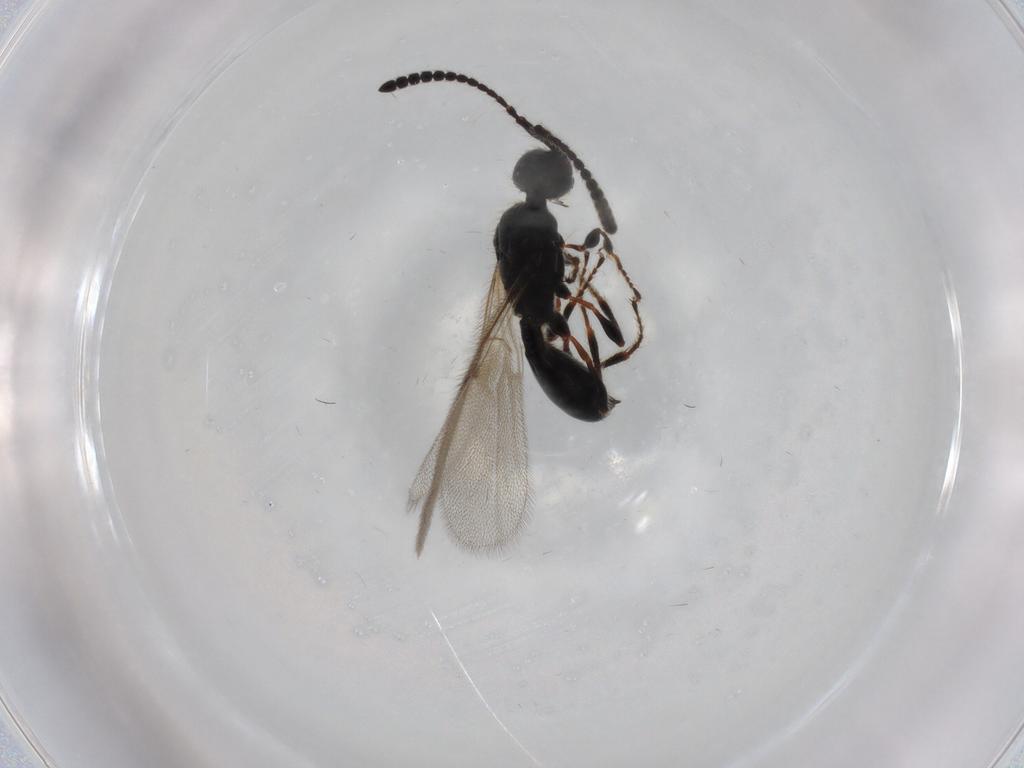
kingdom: Animalia
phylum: Arthropoda
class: Insecta
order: Hymenoptera
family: Diapriidae
